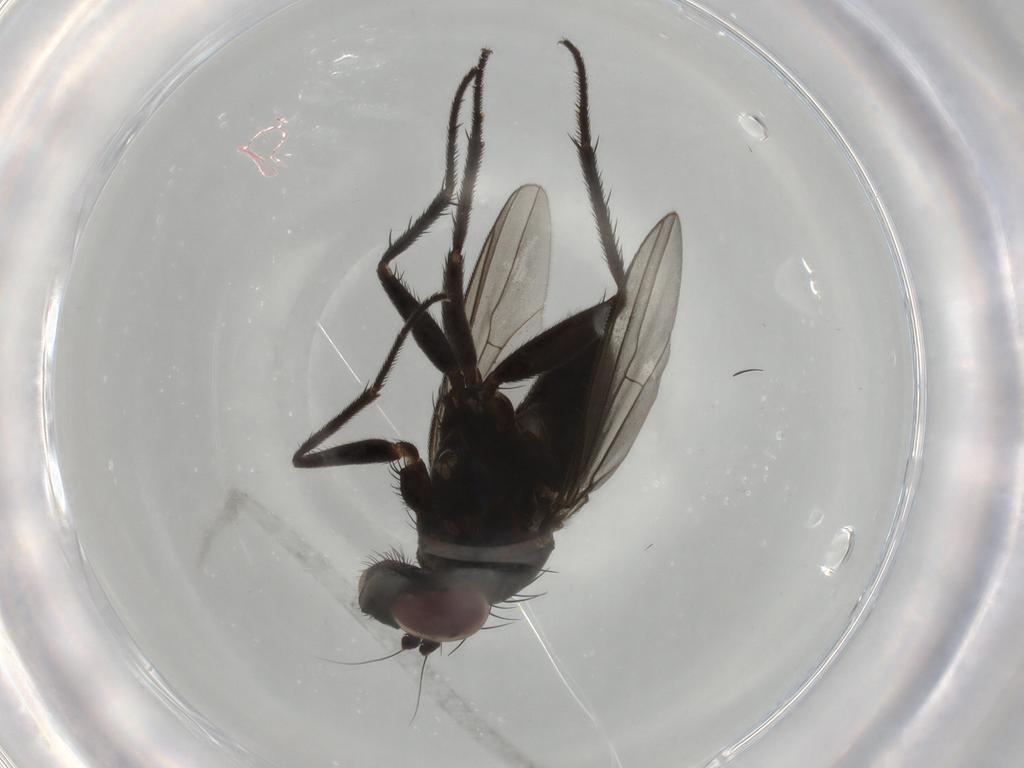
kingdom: Animalia
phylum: Arthropoda
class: Insecta
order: Diptera
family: Dolichopodidae
